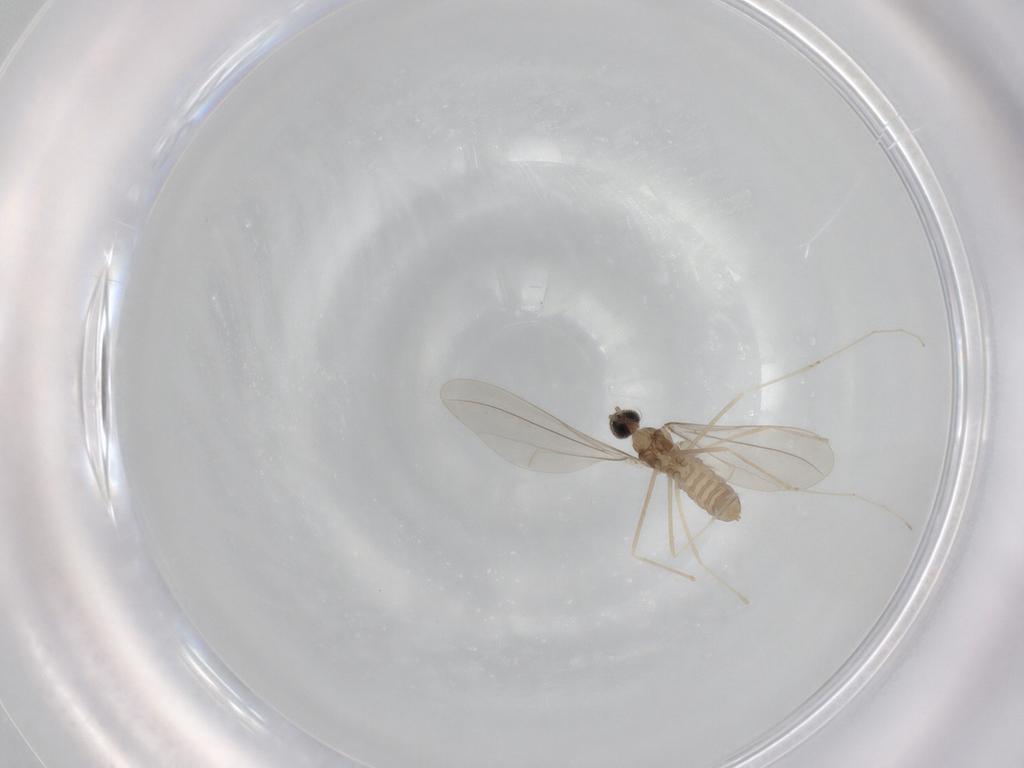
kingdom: Animalia
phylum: Arthropoda
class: Insecta
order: Diptera
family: Cecidomyiidae
